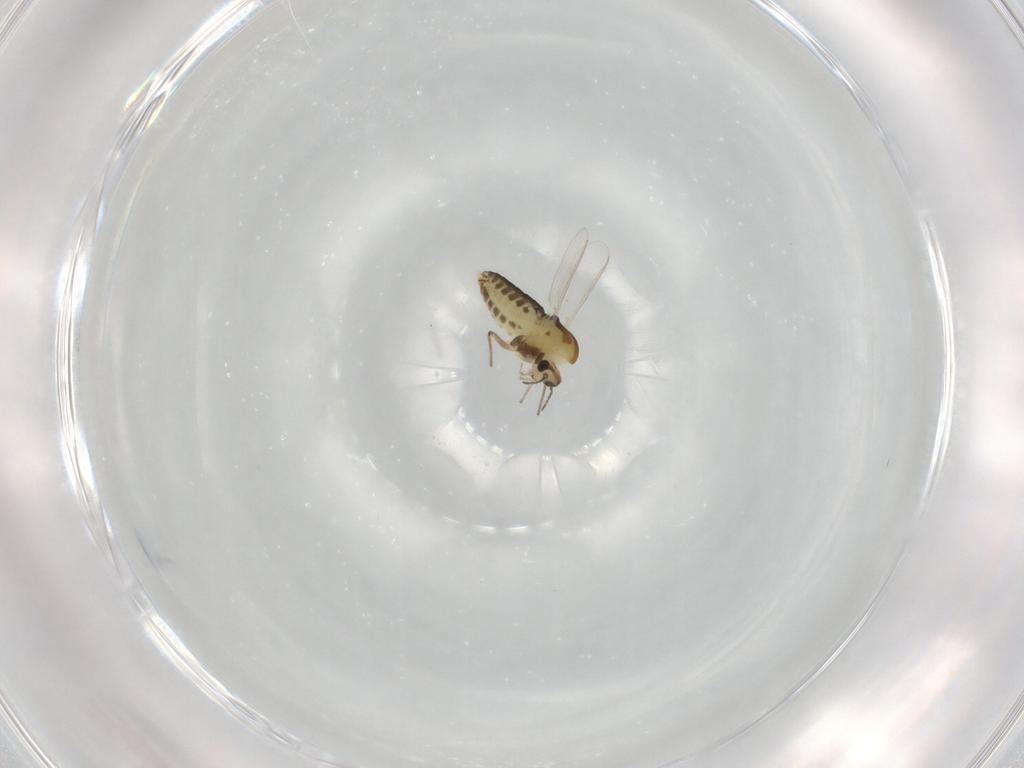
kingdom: Animalia
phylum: Arthropoda
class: Insecta
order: Diptera
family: Chironomidae
